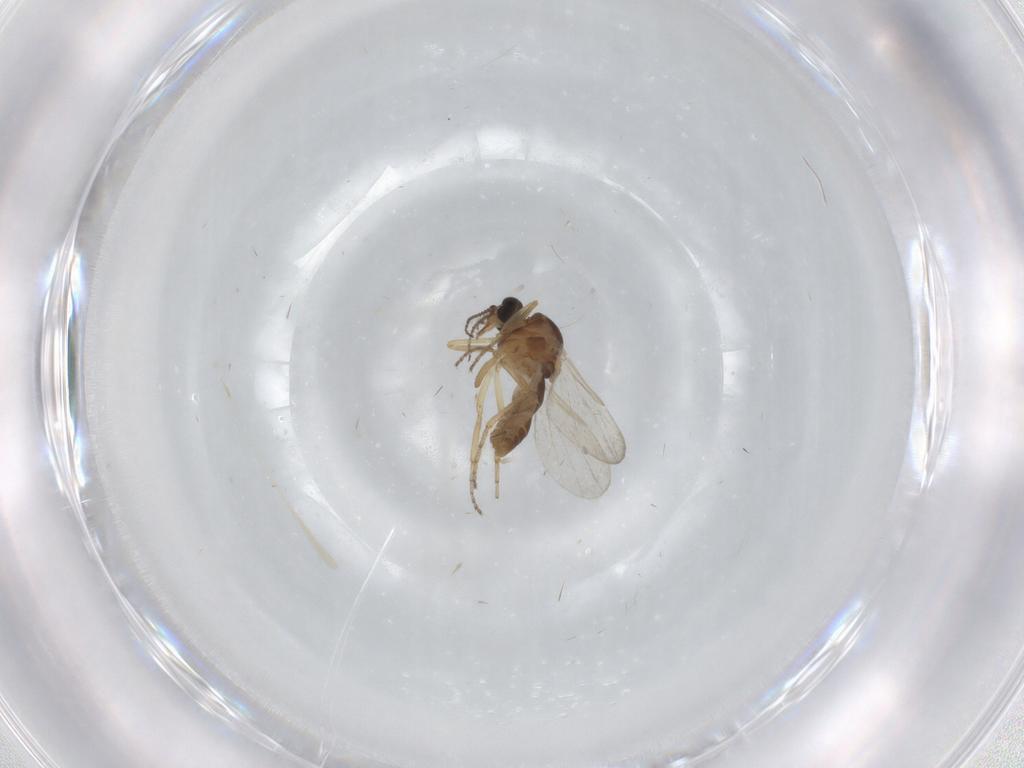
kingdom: Animalia
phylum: Arthropoda
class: Insecta
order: Diptera
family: Ceratopogonidae
